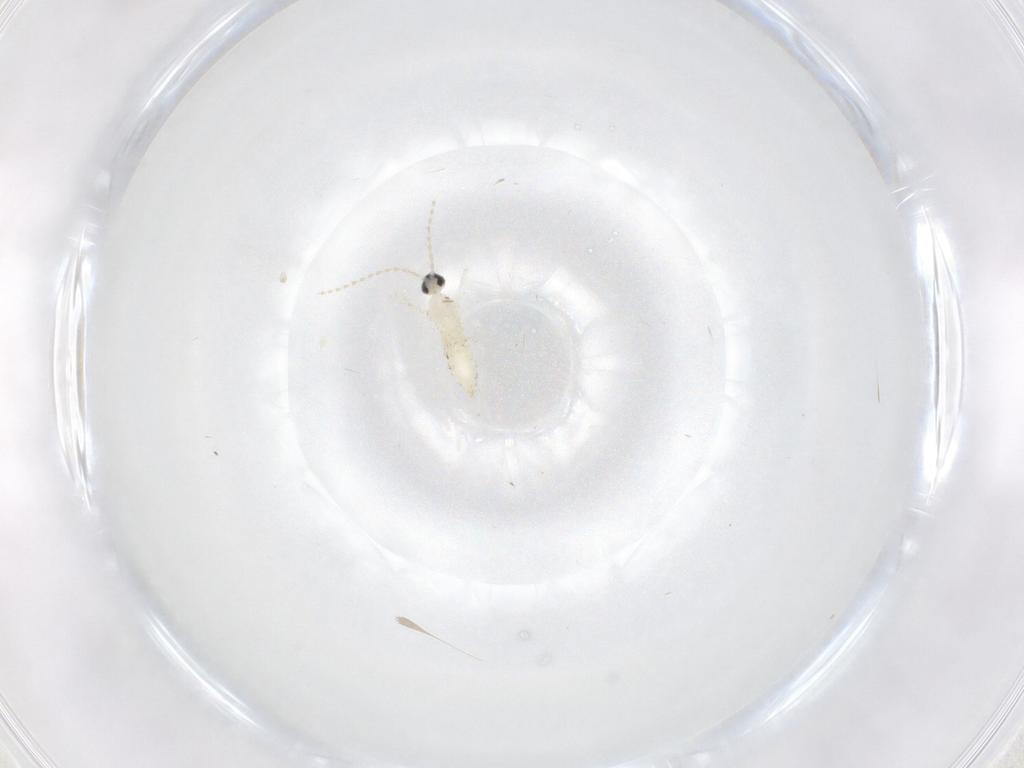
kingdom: Animalia
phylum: Arthropoda
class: Insecta
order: Diptera
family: Cecidomyiidae
